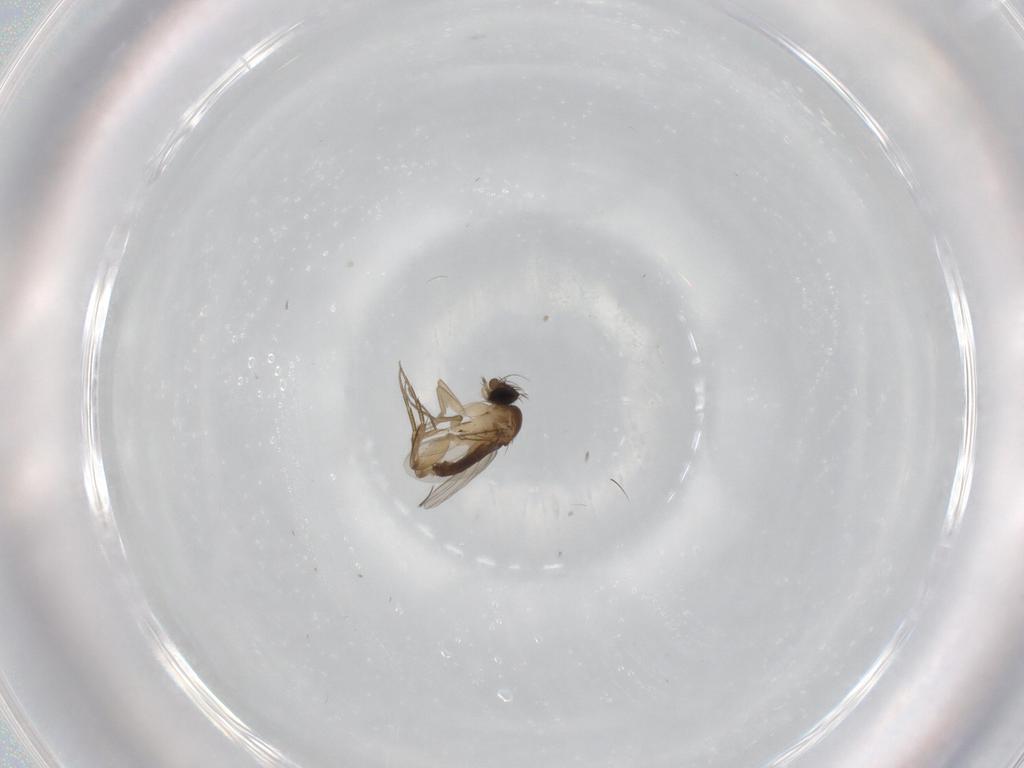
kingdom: Animalia
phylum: Arthropoda
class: Insecta
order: Diptera
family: Phoridae
